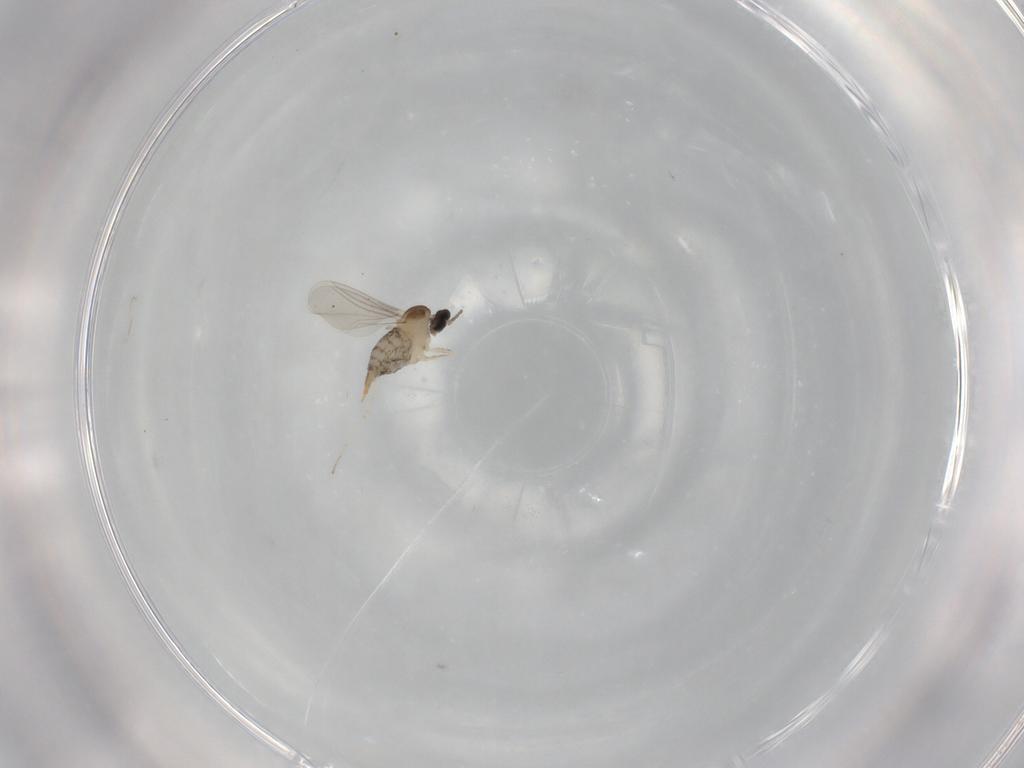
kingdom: Animalia
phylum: Arthropoda
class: Insecta
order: Diptera
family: Cecidomyiidae
